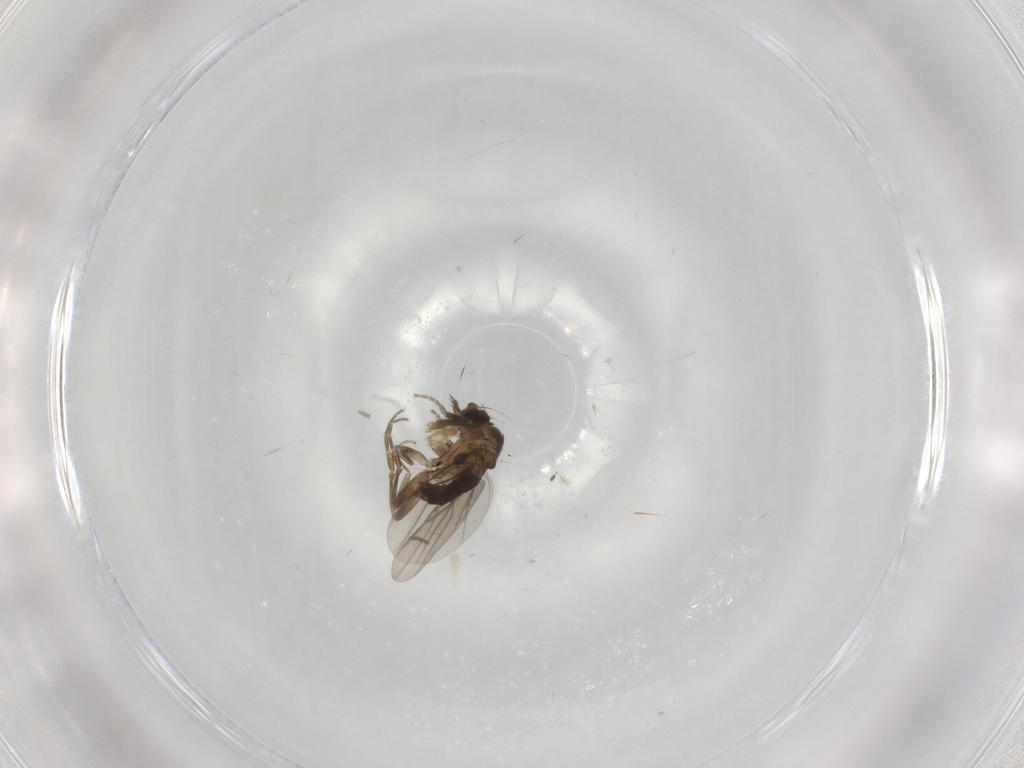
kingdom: Animalia
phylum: Arthropoda
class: Insecta
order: Diptera
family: Sciaridae
